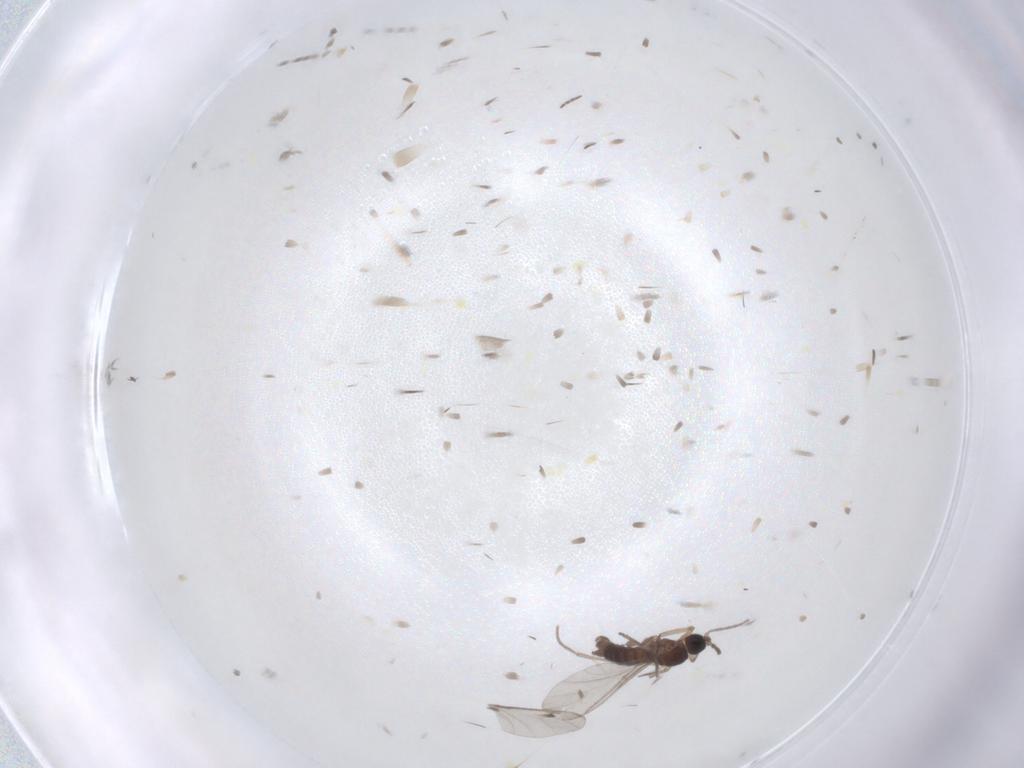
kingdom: Animalia
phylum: Arthropoda
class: Insecta
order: Diptera
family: Sciaridae
